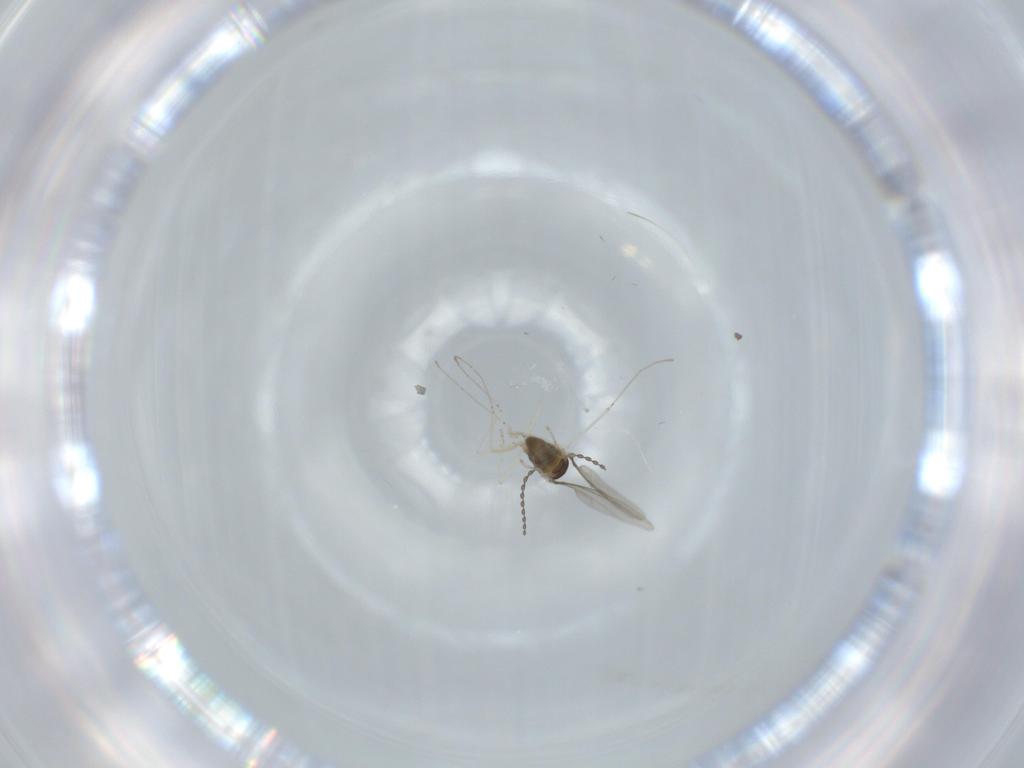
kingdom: Animalia
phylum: Arthropoda
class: Insecta
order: Diptera
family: Cecidomyiidae
